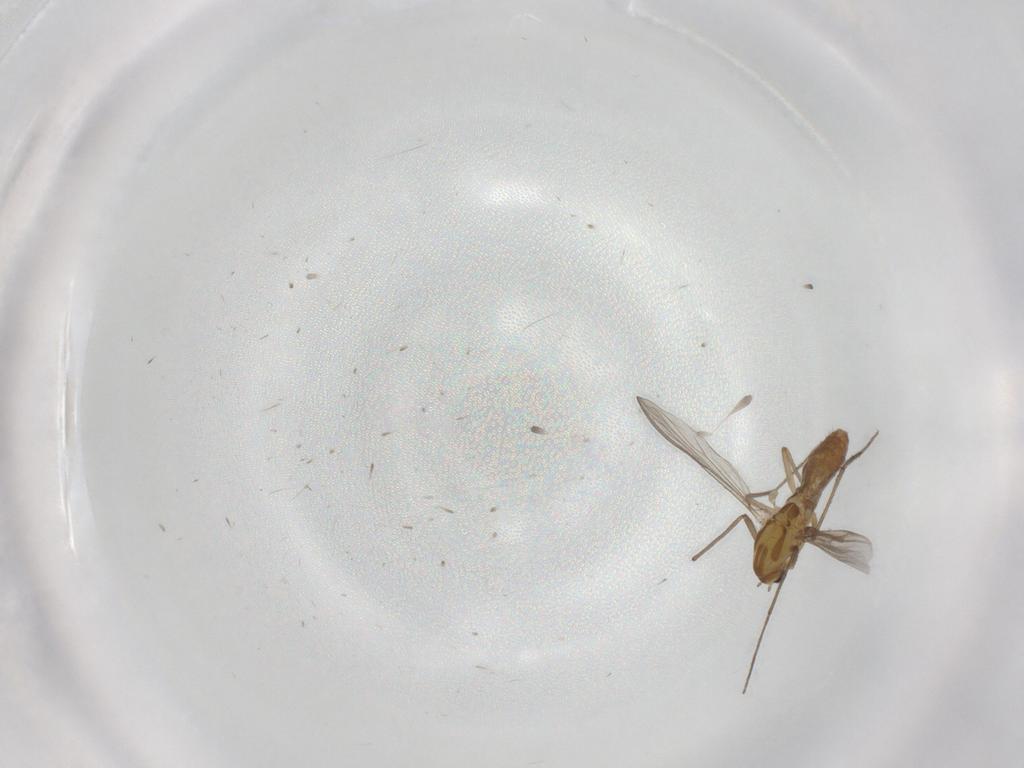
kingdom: Animalia
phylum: Arthropoda
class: Insecta
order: Diptera
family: Chironomidae
